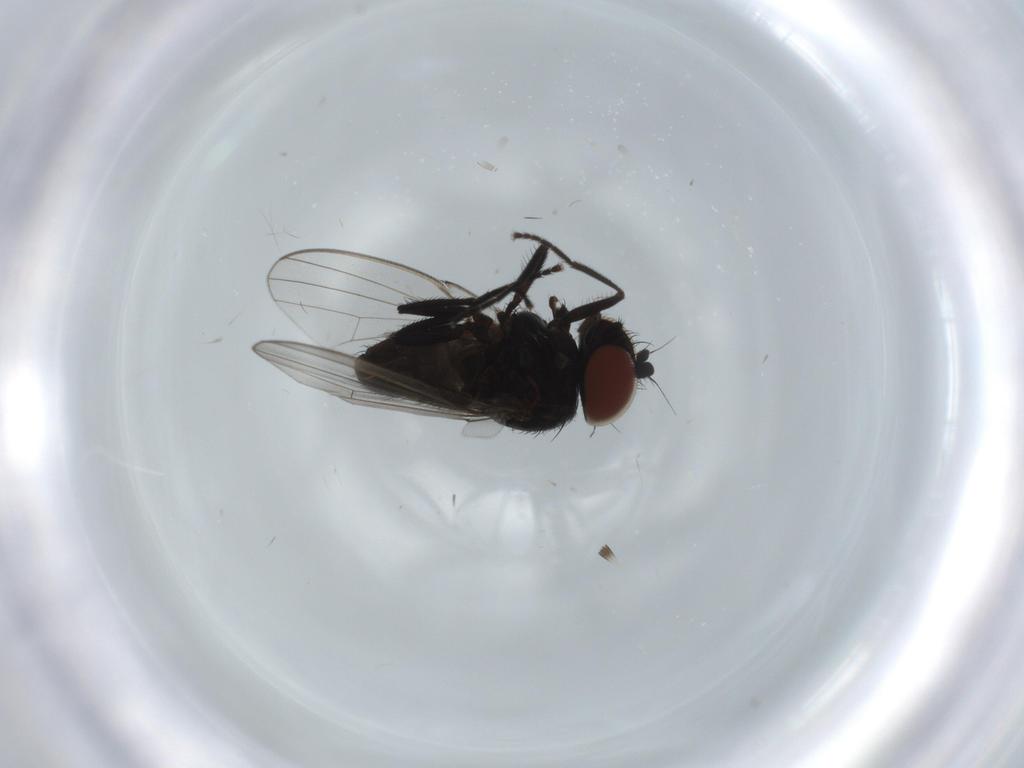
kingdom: Animalia
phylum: Arthropoda
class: Insecta
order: Diptera
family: Milichiidae
